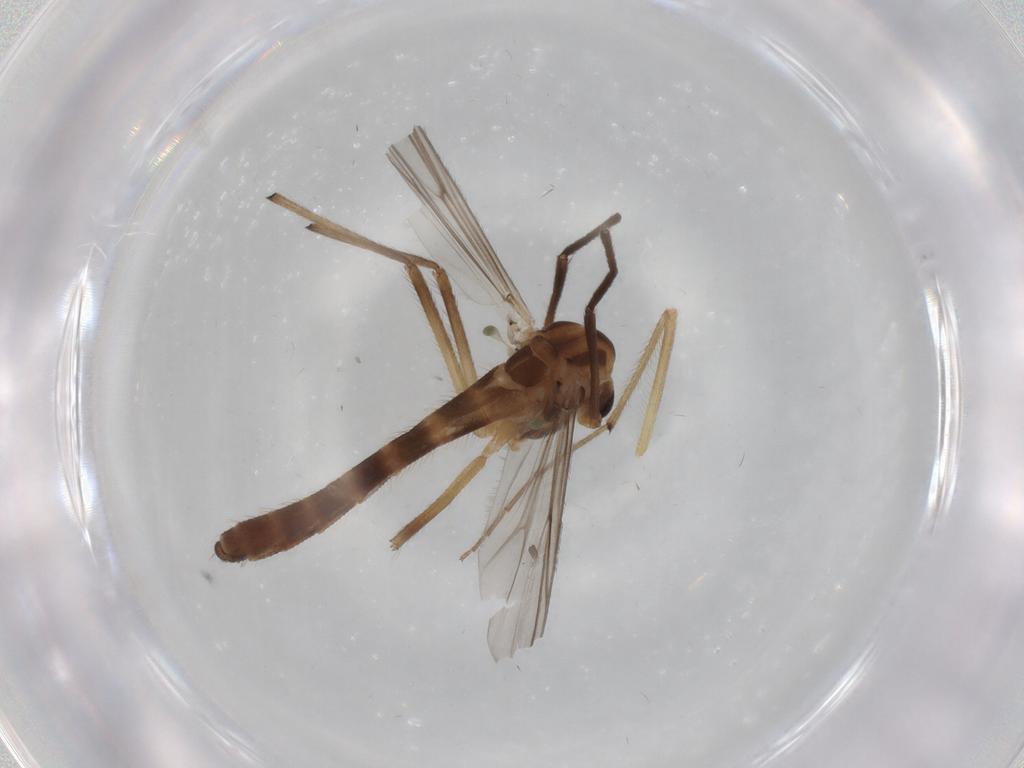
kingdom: Animalia
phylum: Arthropoda
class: Insecta
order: Diptera
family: Chironomidae
